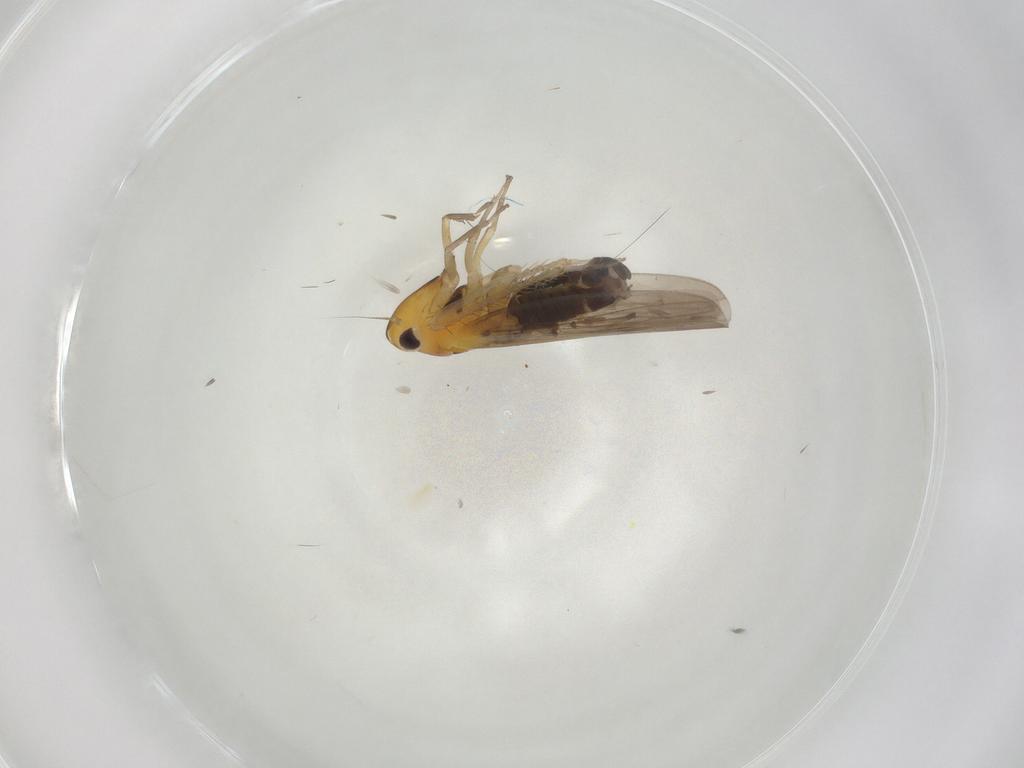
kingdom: Animalia
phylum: Arthropoda
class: Insecta
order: Hemiptera
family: Cicadellidae
